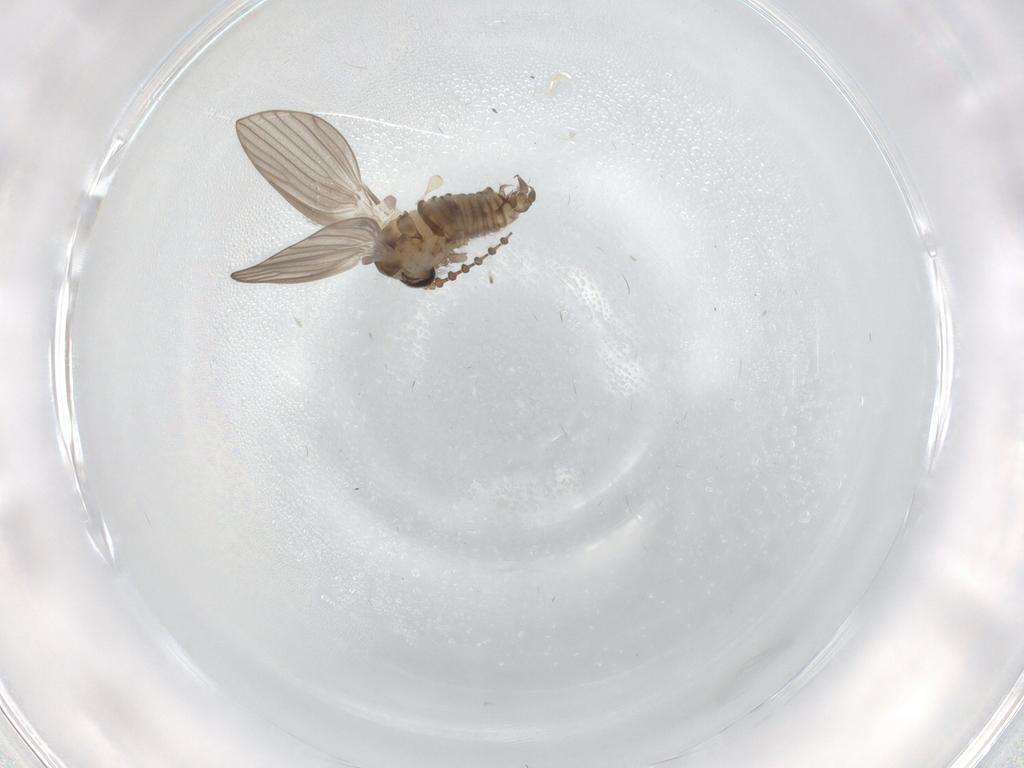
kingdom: Animalia
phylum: Arthropoda
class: Insecta
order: Diptera
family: Psychodidae
